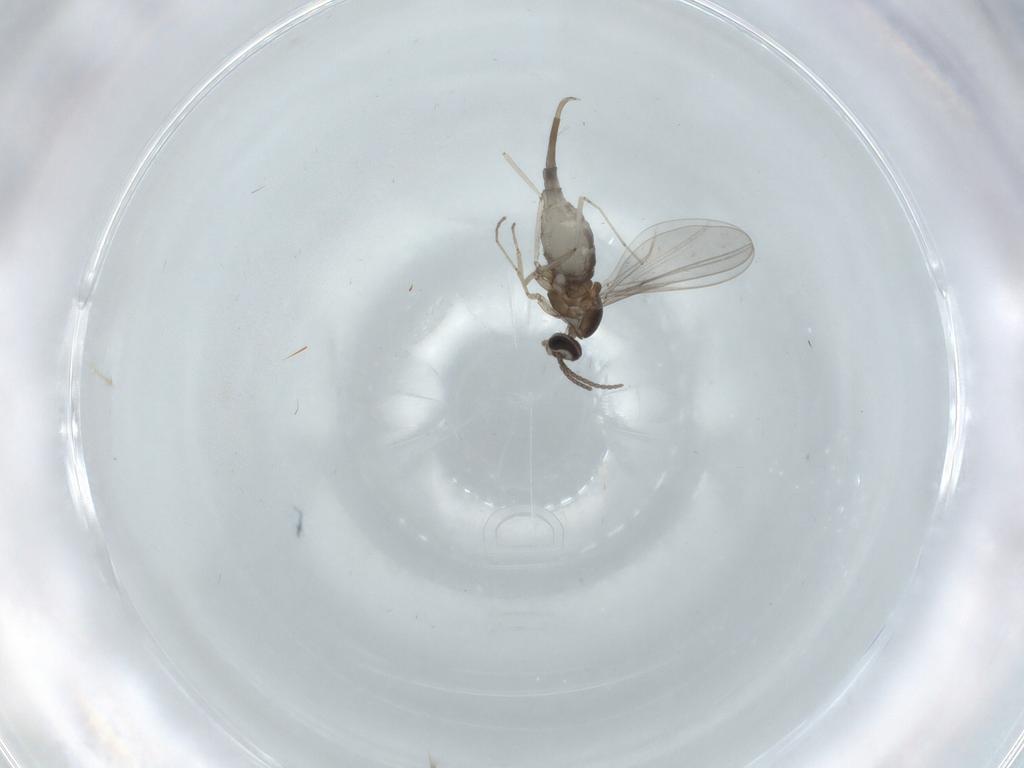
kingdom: Animalia
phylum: Arthropoda
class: Insecta
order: Diptera
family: Cecidomyiidae
